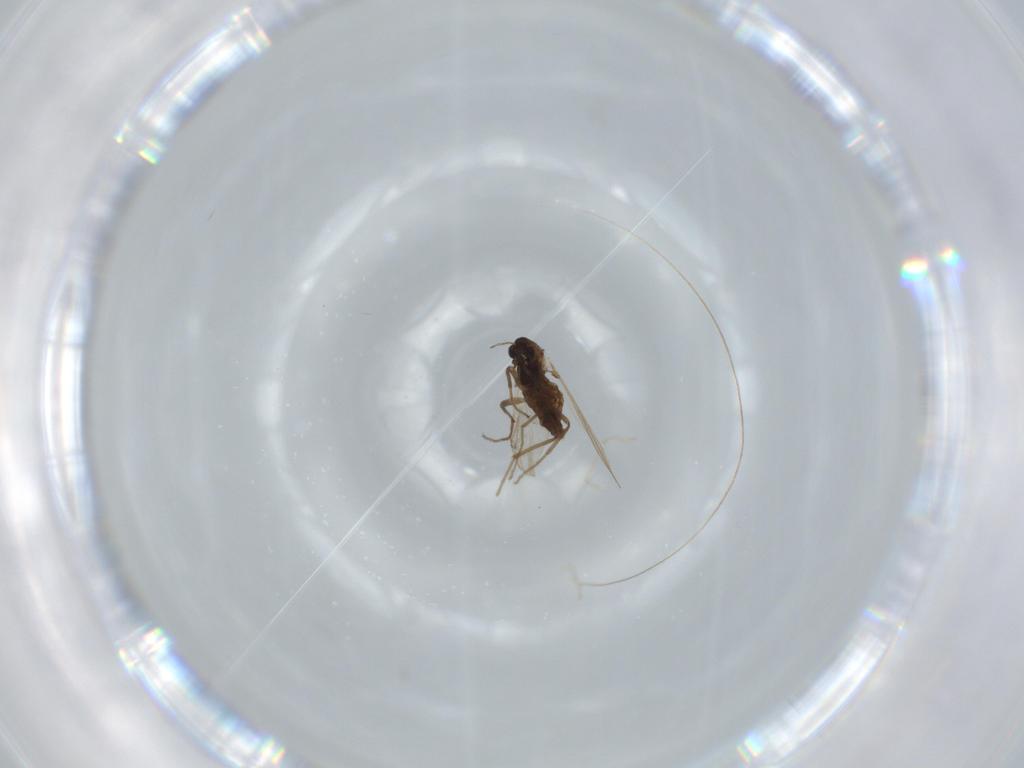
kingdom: Animalia
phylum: Arthropoda
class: Insecta
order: Diptera
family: Chironomidae
